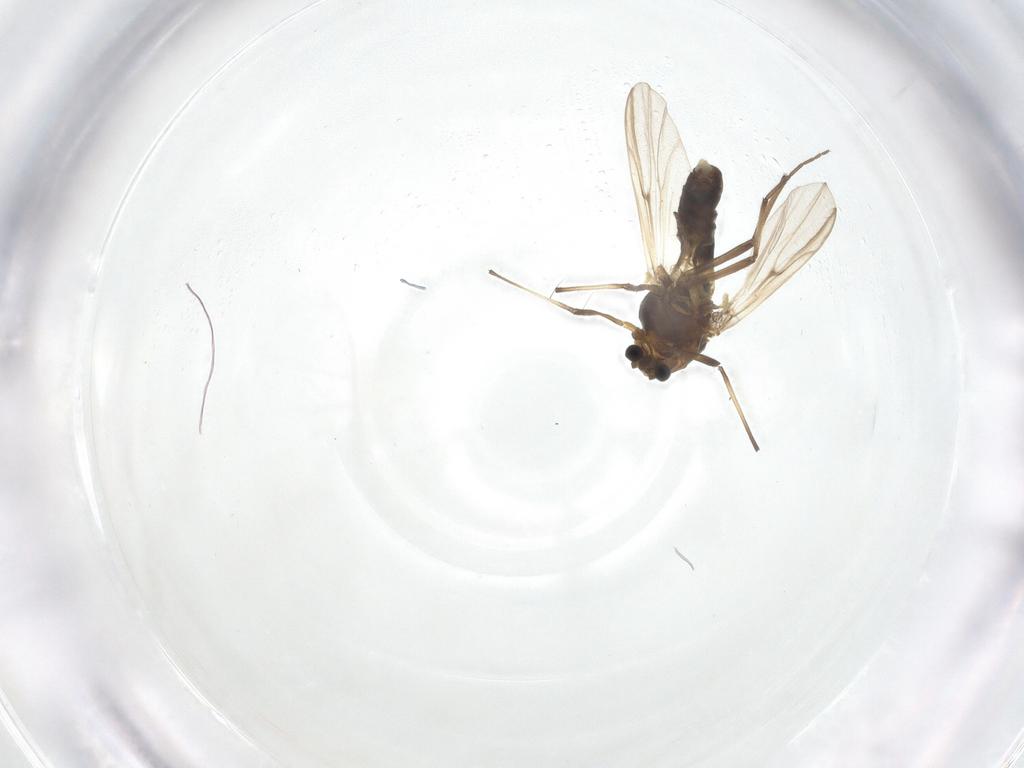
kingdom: Animalia
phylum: Arthropoda
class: Insecta
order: Diptera
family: Chironomidae
